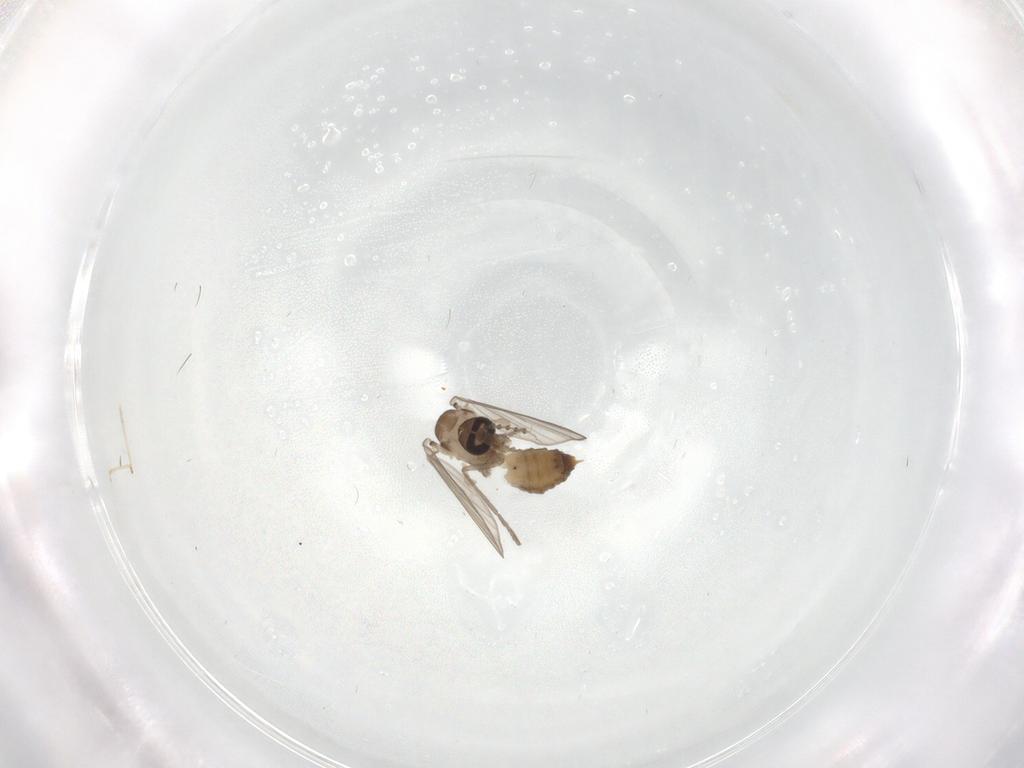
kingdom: Animalia
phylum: Arthropoda
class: Insecta
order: Diptera
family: Psychodidae
